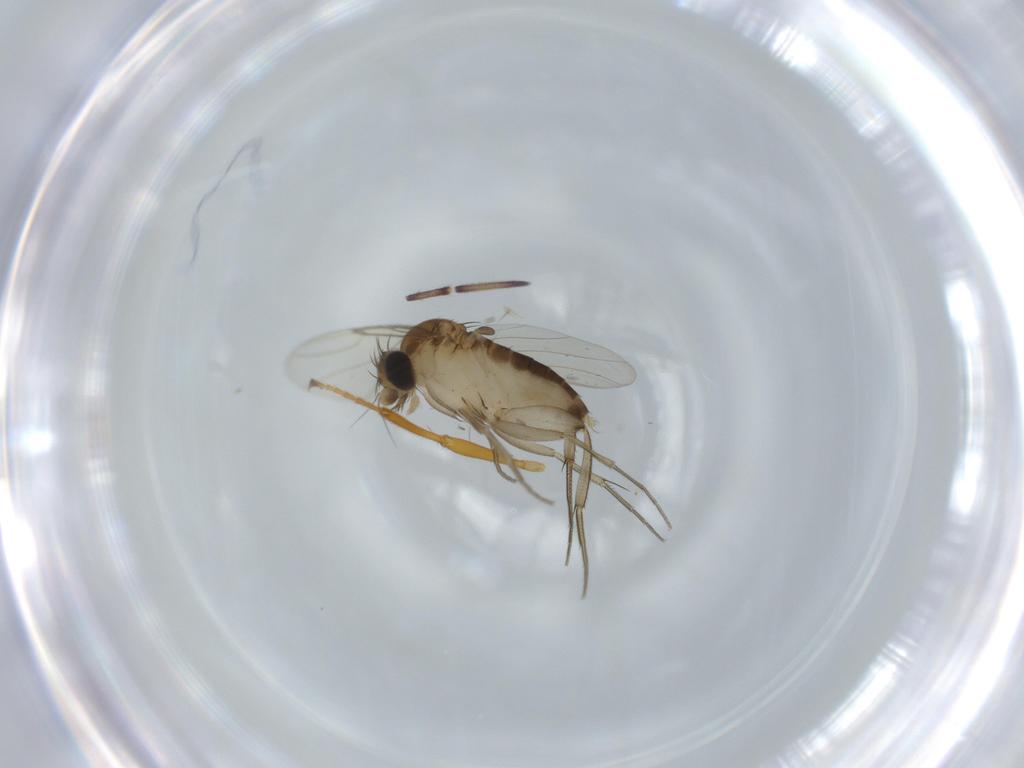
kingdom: Animalia
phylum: Arthropoda
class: Insecta
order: Diptera
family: Phoridae
